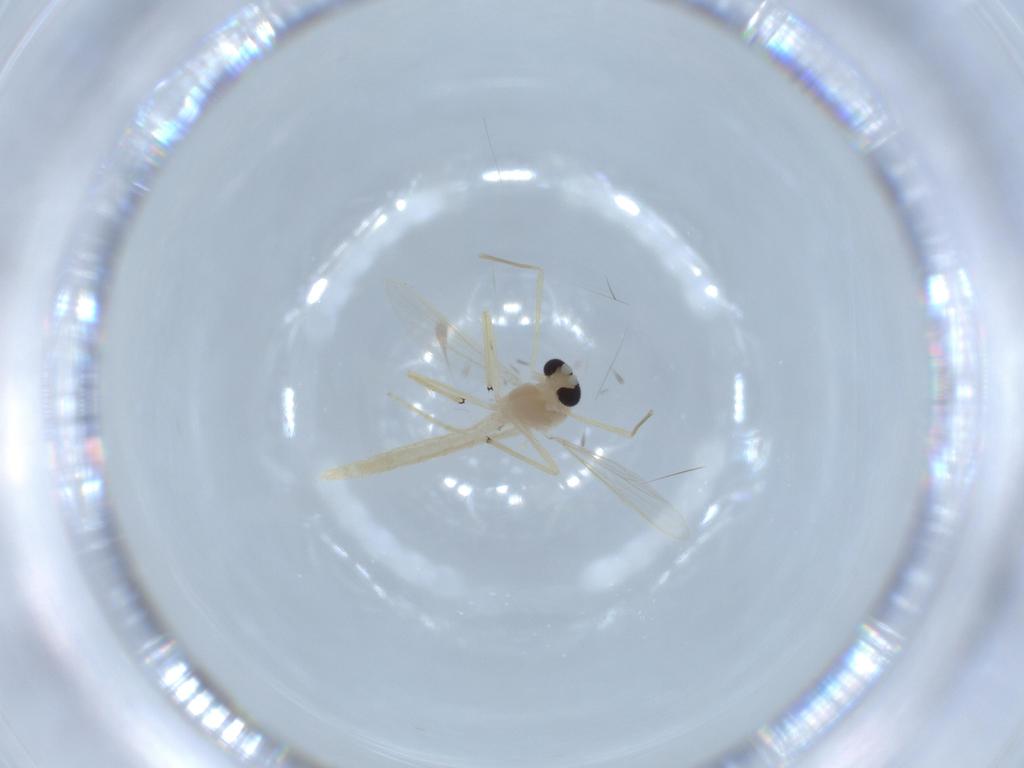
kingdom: Animalia
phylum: Arthropoda
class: Insecta
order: Diptera
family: Chironomidae
